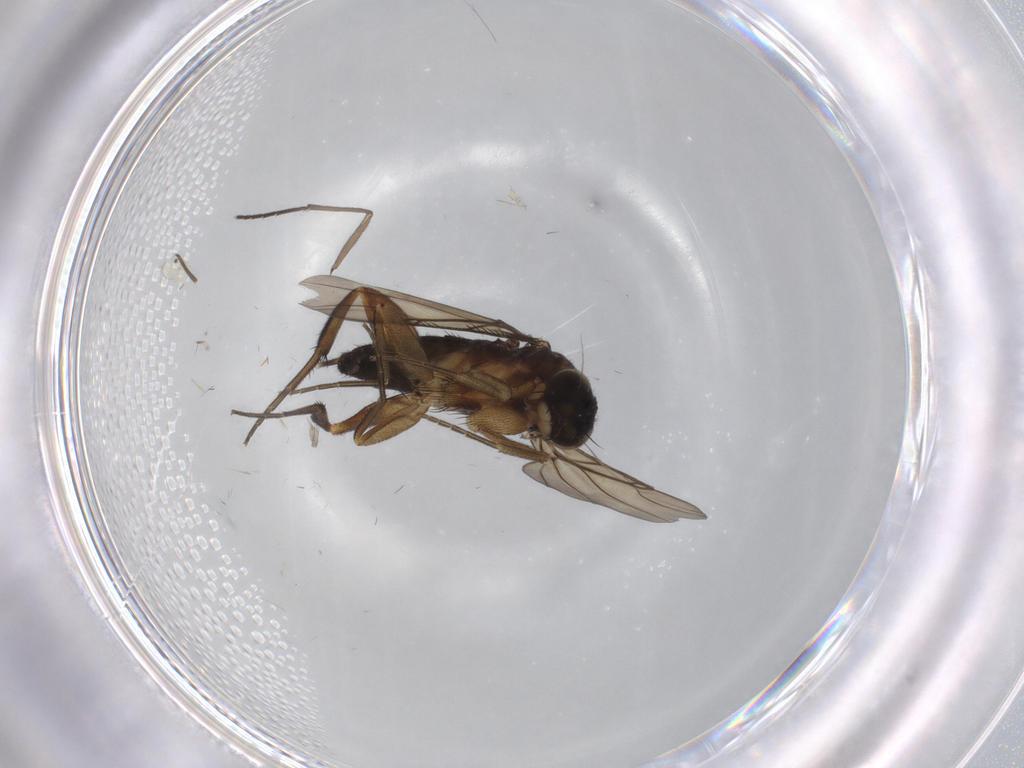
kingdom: Animalia
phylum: Arthropoda
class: Insecta
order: Diptera
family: Phoridae
